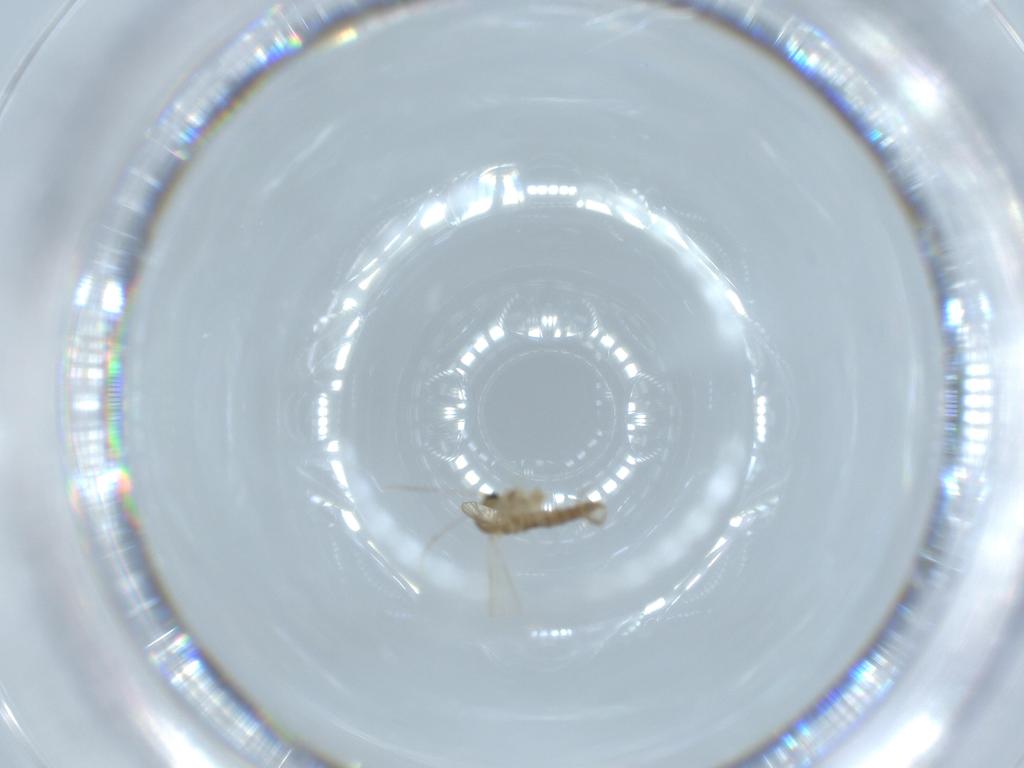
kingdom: Animalia
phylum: Arthropoda
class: Insecta
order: Diptera
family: Psychodidae
